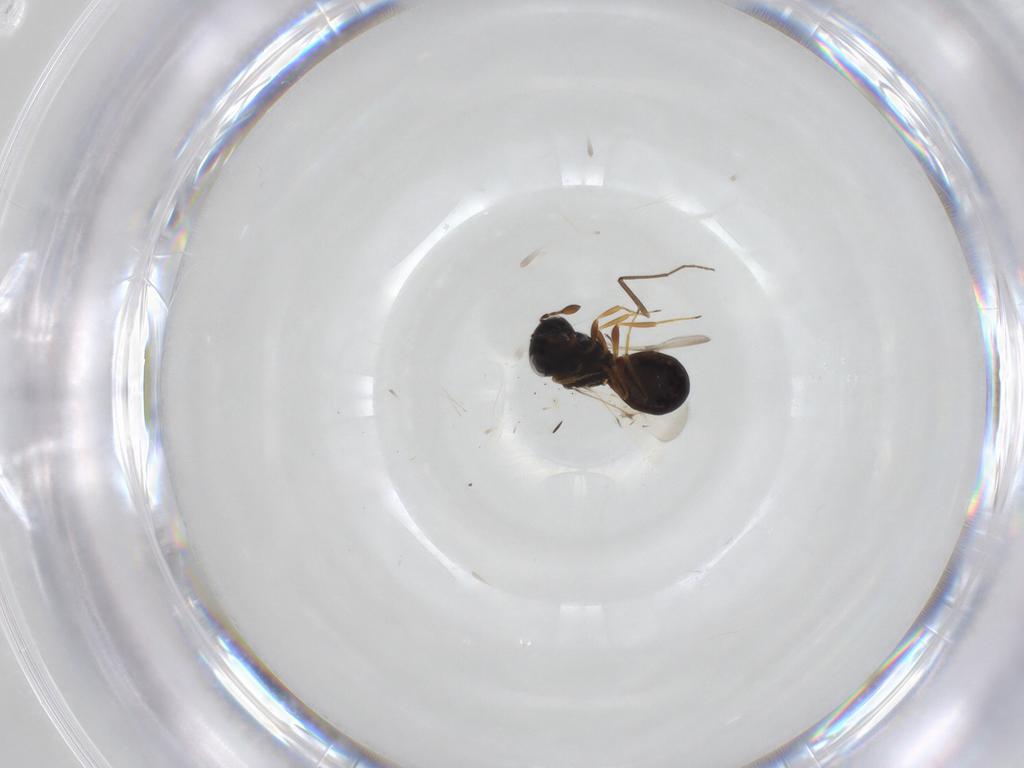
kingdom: Animalia
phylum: Arthropoda
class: Insecta
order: Hymenoptera
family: Scelionidae
